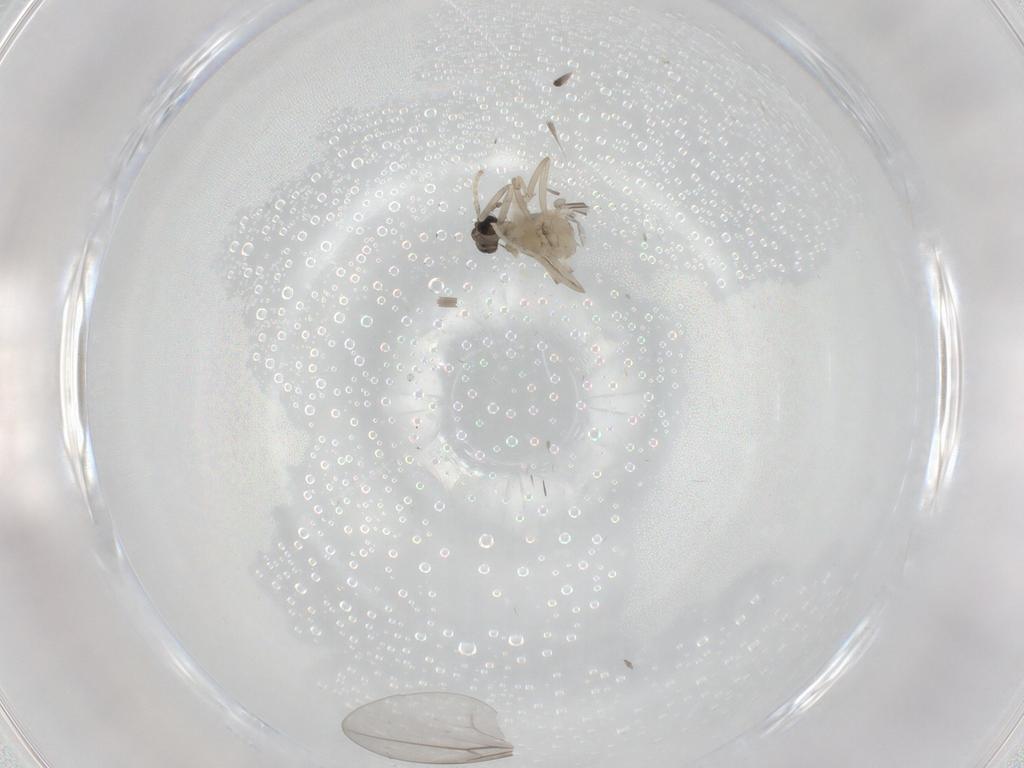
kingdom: Animalia
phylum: Arthropoda
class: Insecta
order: Diptera
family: Cecidomyiidae
